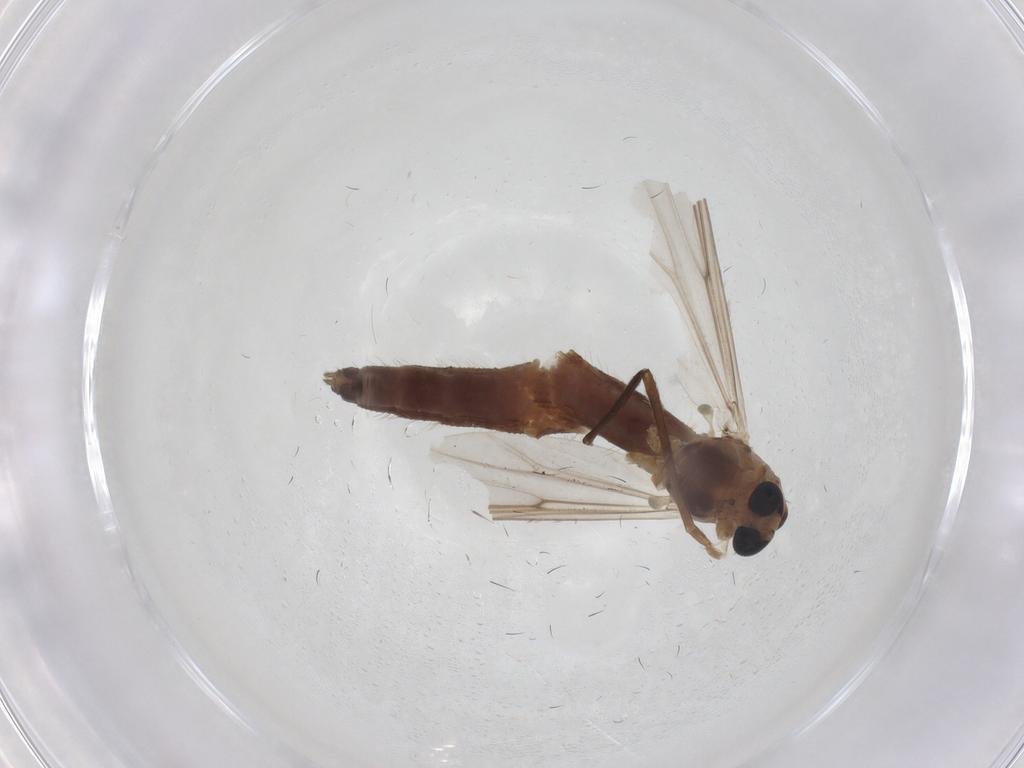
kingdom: Animalia
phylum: Arthropoda
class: Insecta
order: Diptera
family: Chironomidae
